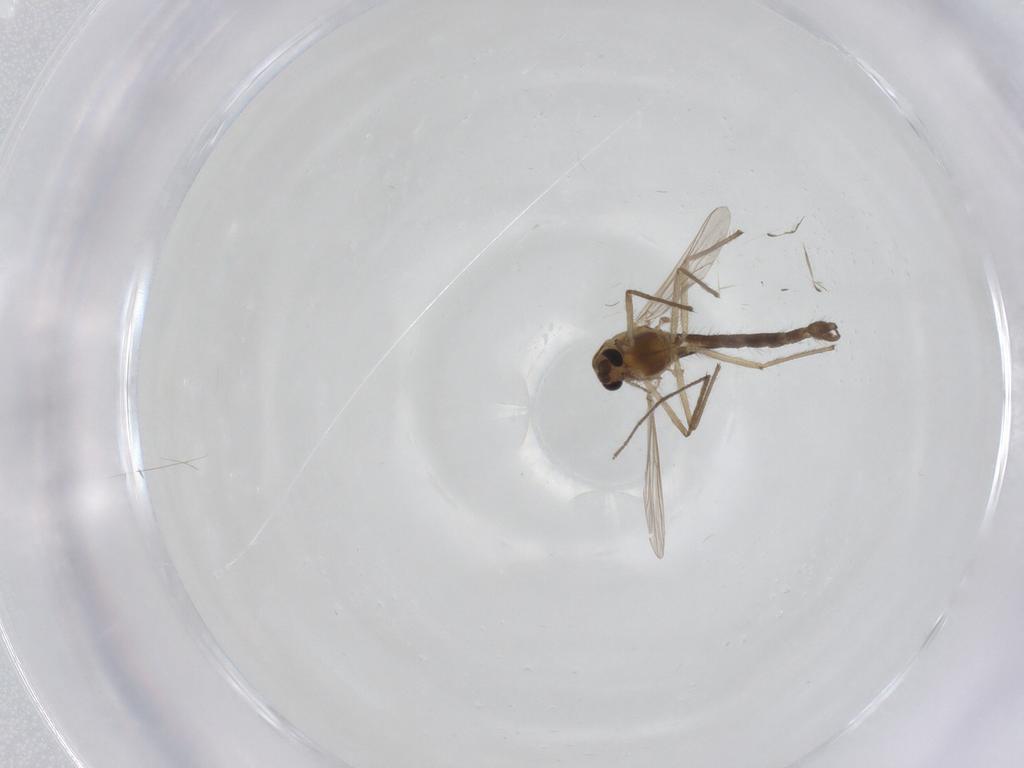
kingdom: Animalia
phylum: Arthropoda
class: Insecta
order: Diptera
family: Chironomidae
